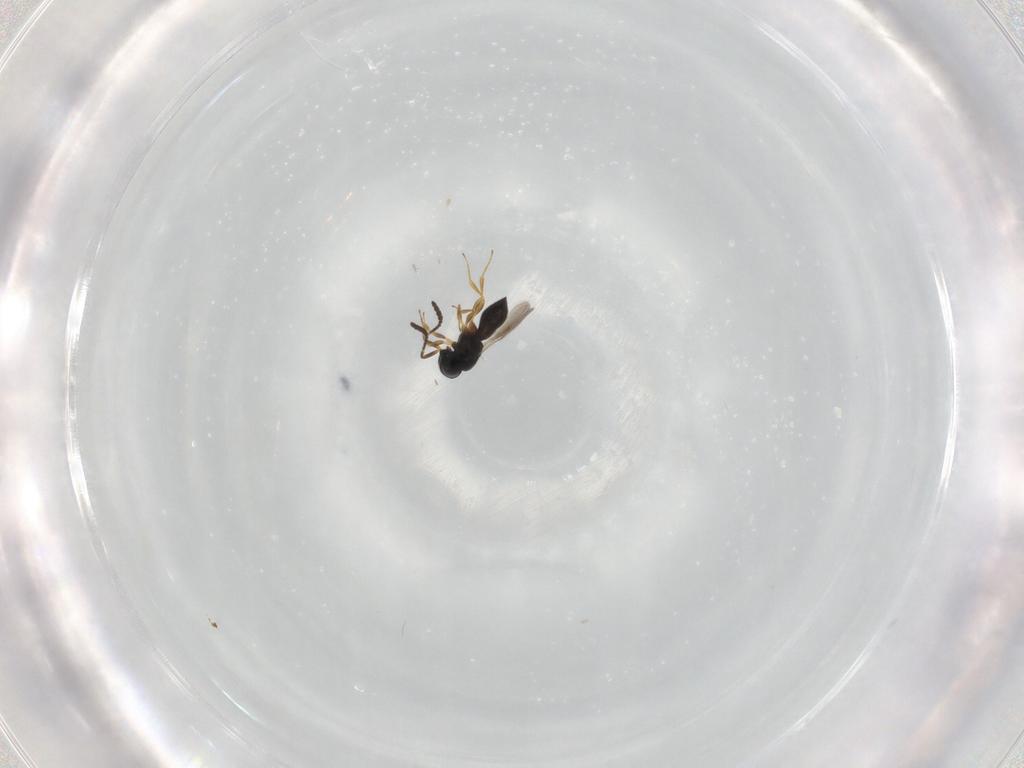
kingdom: Animalia
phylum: Arthropoda
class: Insecta
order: Hymenoptera
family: Scelionidae
